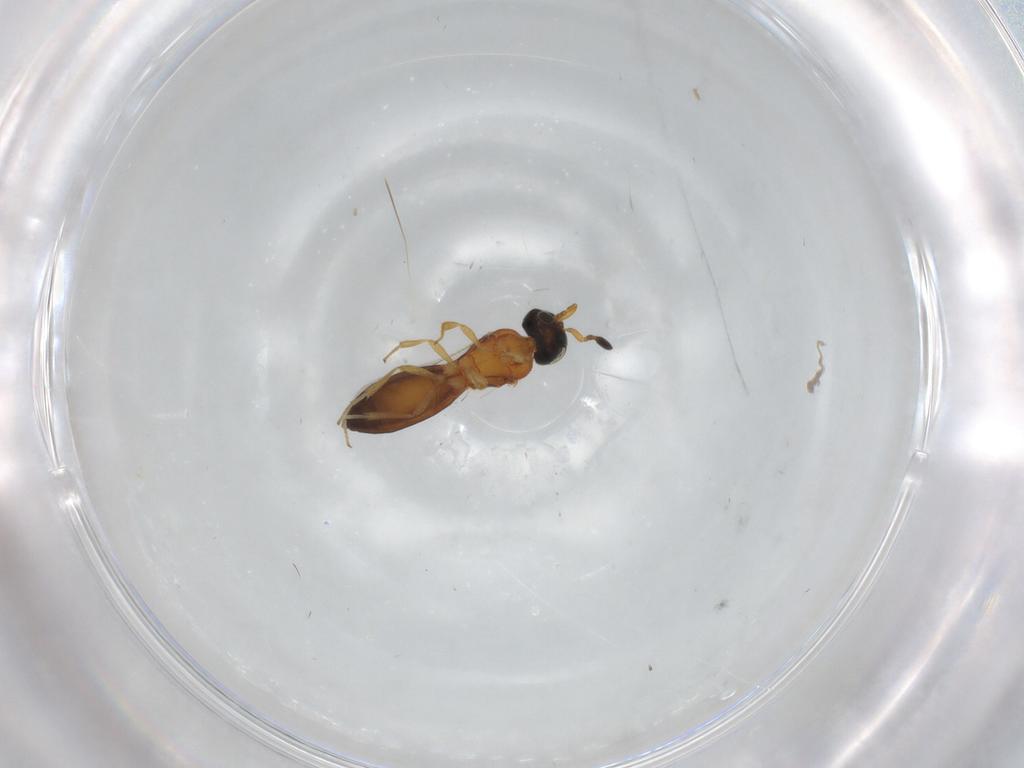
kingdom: Animalia
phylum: Arthropoda
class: Insecta
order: Hymenoptera
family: Ichneumonidae
